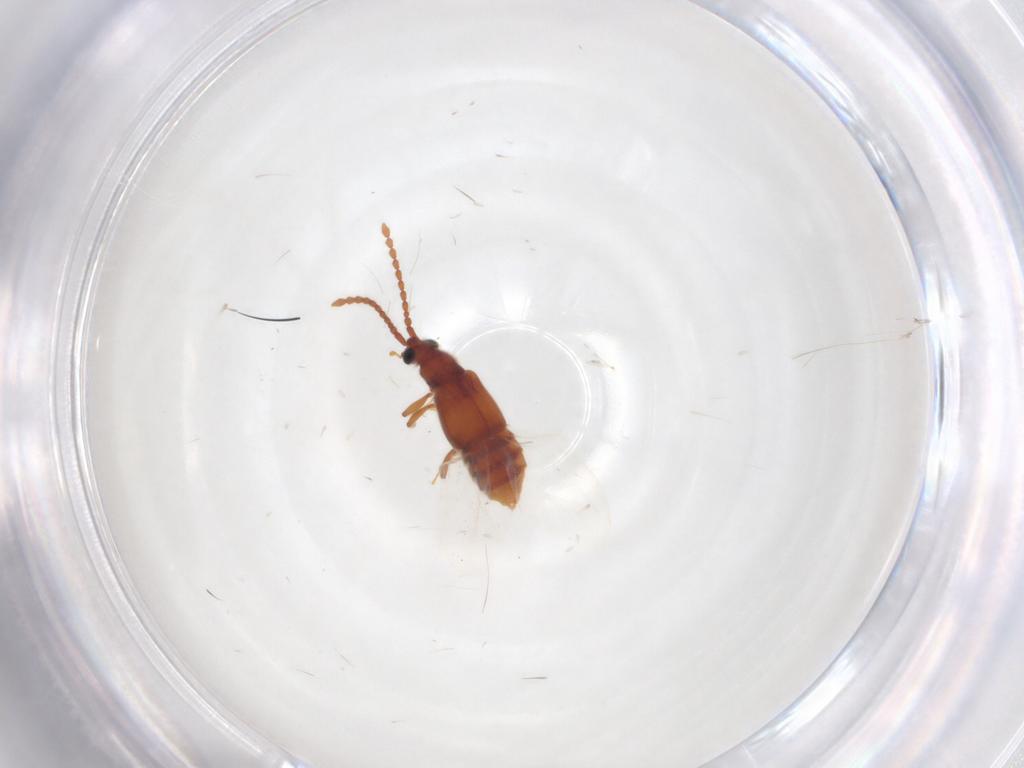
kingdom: Animalia
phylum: Arthropoda
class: Insecta
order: Coleoptera
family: Staphylinidae
